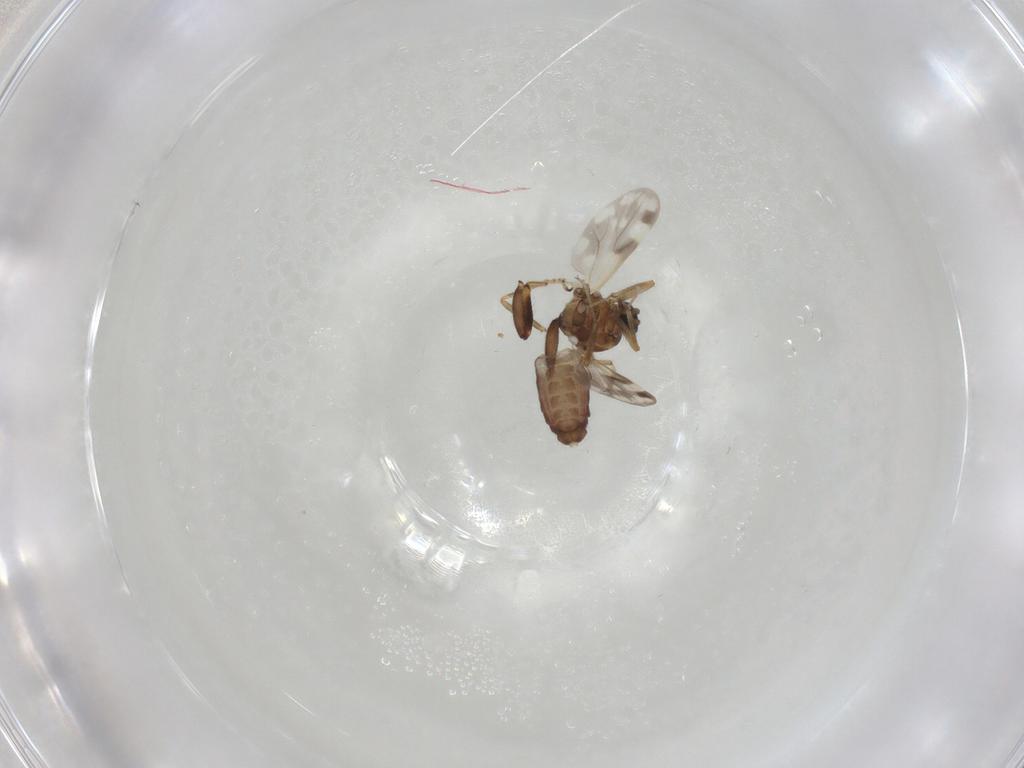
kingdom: Animalia
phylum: Arthropoda
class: Insecta
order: Diptera
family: Ceratopogonidae
